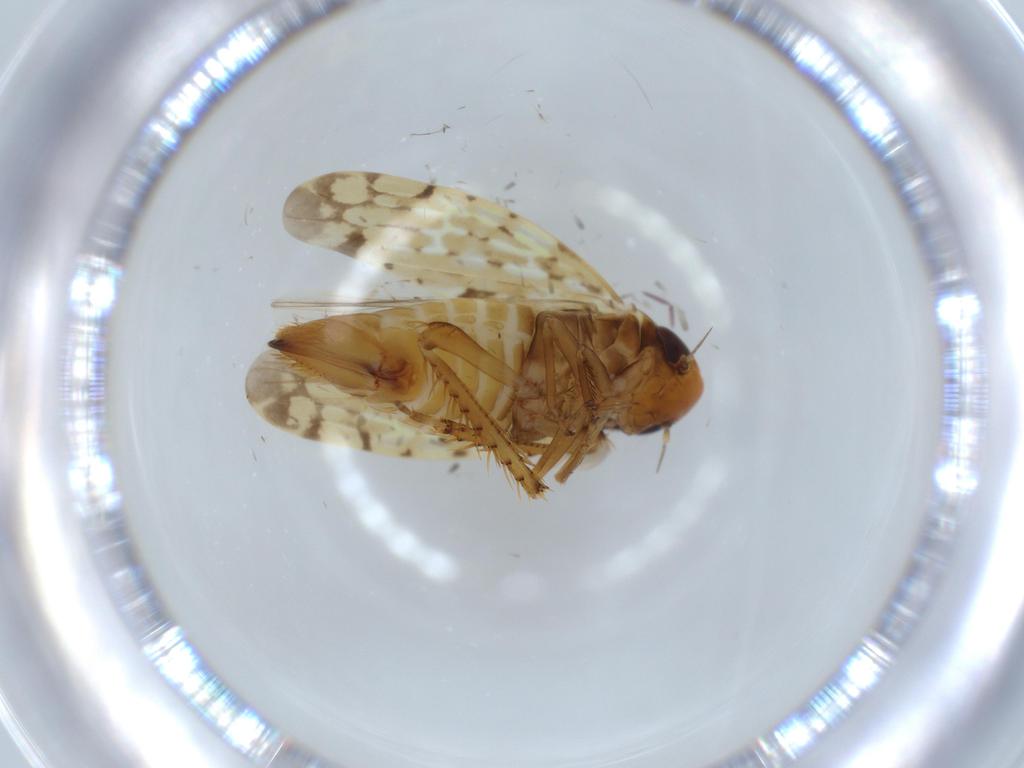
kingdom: Animalia
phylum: Arthropoda
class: Insecta
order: Hemiptera
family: Cicadellidae
